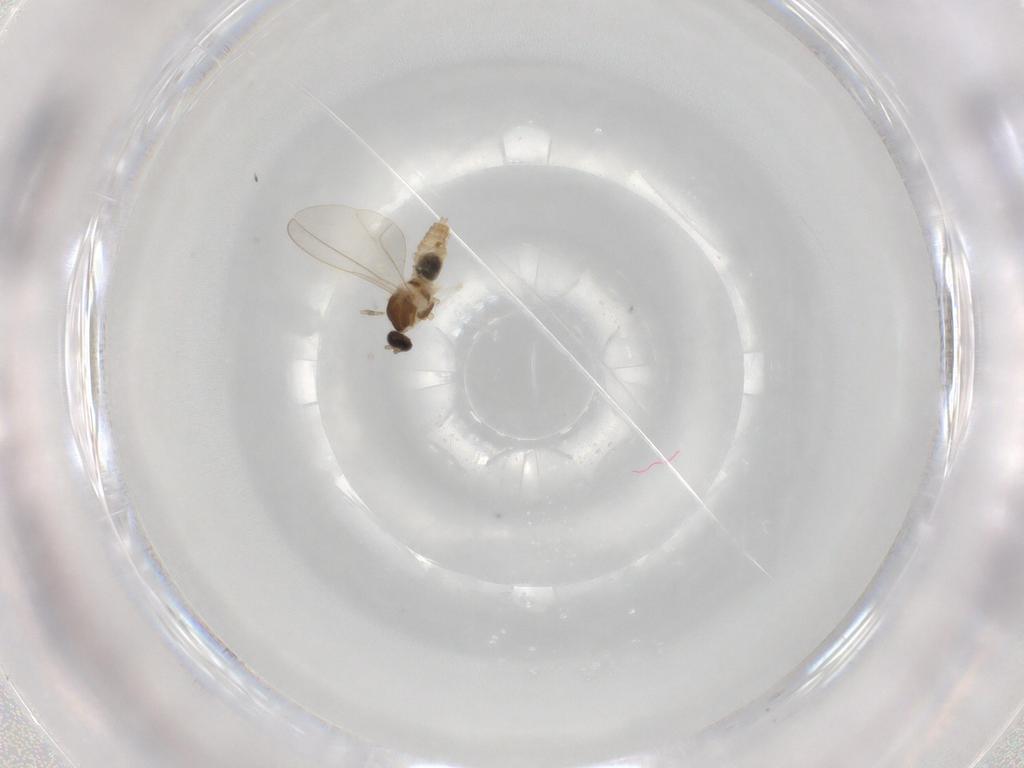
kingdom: Animalia
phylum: Arthropoda
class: Insecta
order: Diptera
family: Cecidomyiidae
